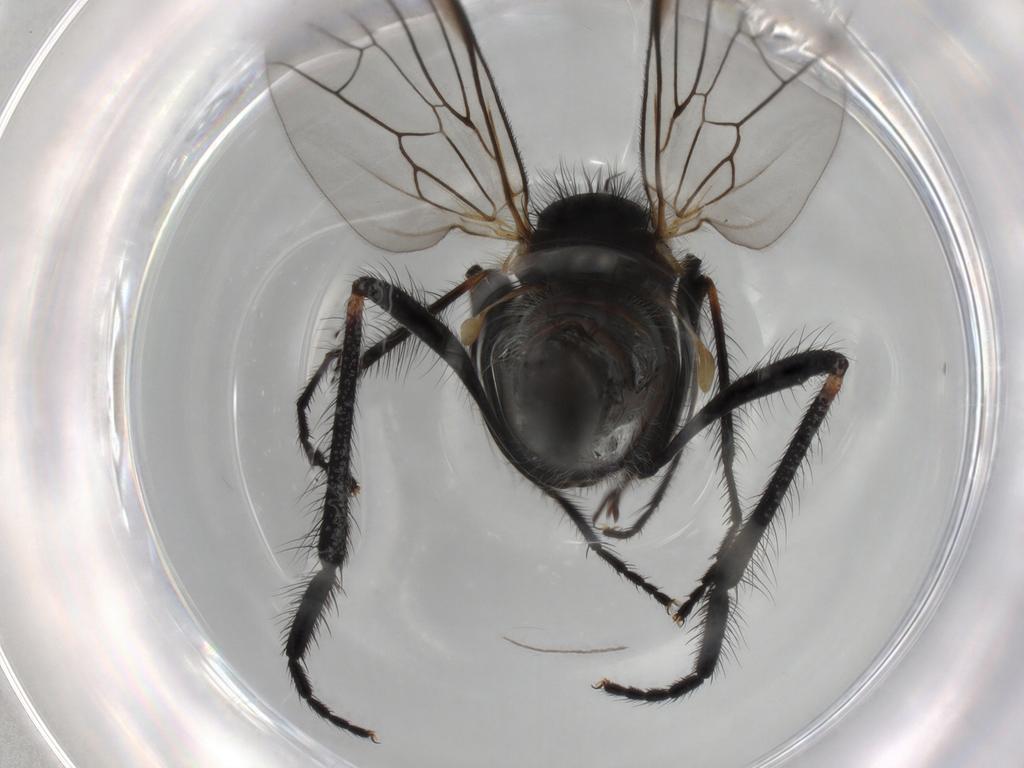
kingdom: Animalia
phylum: Arthropoda
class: Insecta
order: Diptera
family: Empididae
